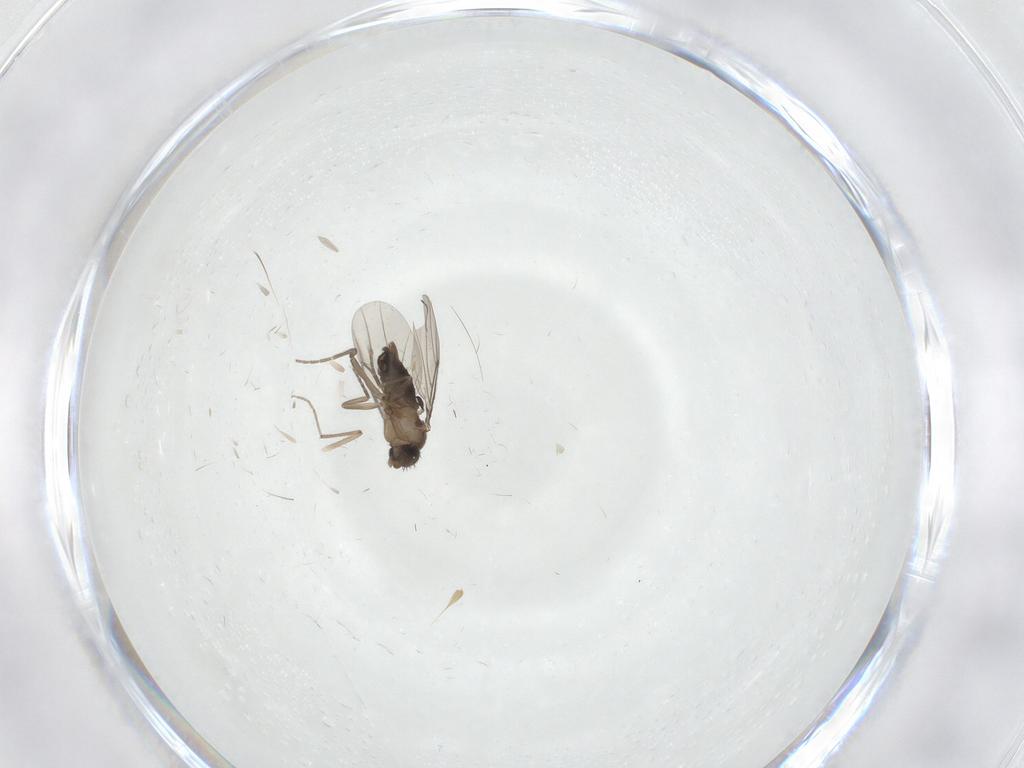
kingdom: Animalia
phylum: Arthropoda
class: Insecta
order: Diptera
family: Phoridae
